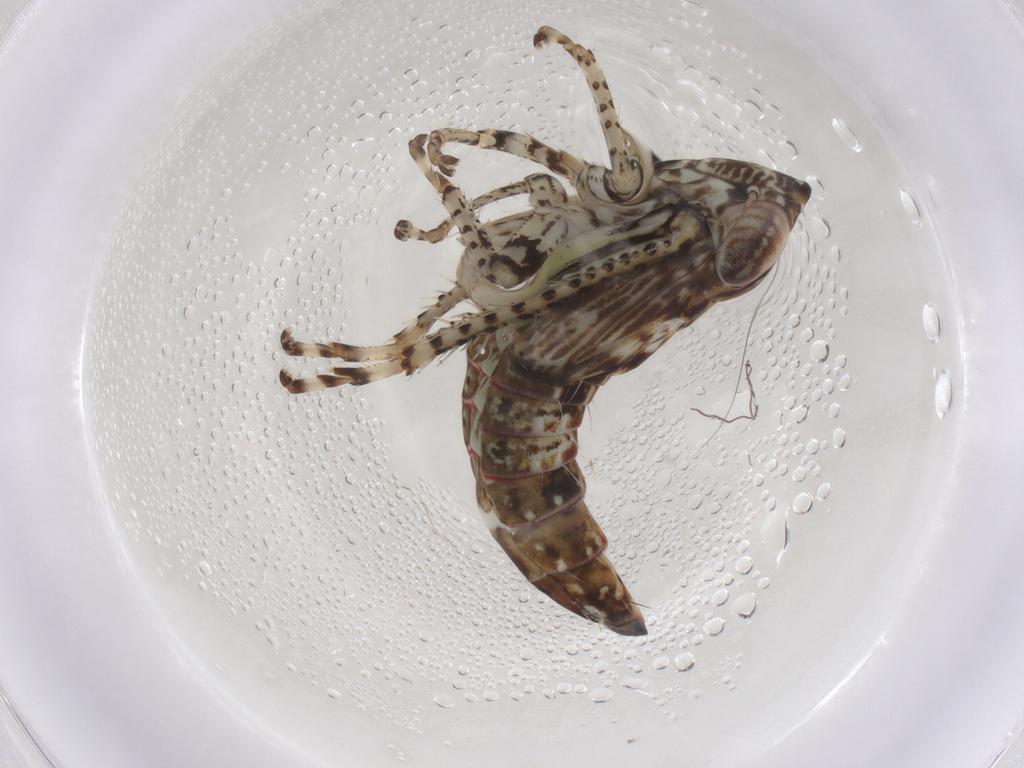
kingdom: Animalia
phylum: Arthropoda
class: Insecta
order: Hemiptera
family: Cicadellidae
